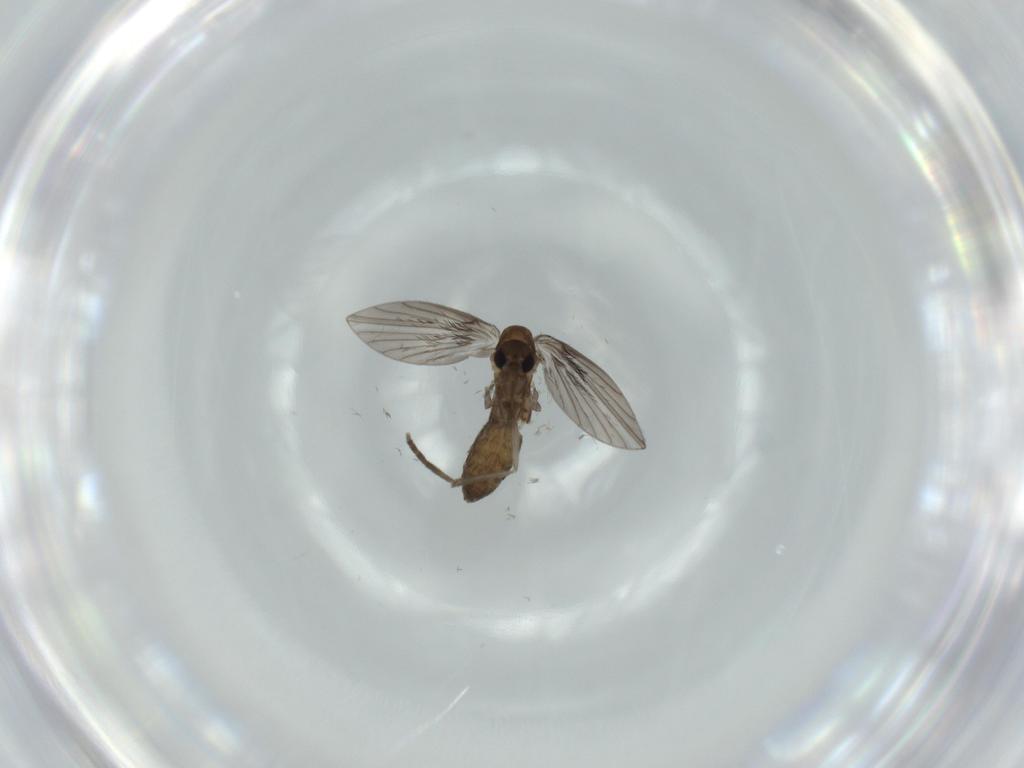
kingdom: Animalia
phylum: Arthropoda
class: Insecta
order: Diptera
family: Psychodidae
